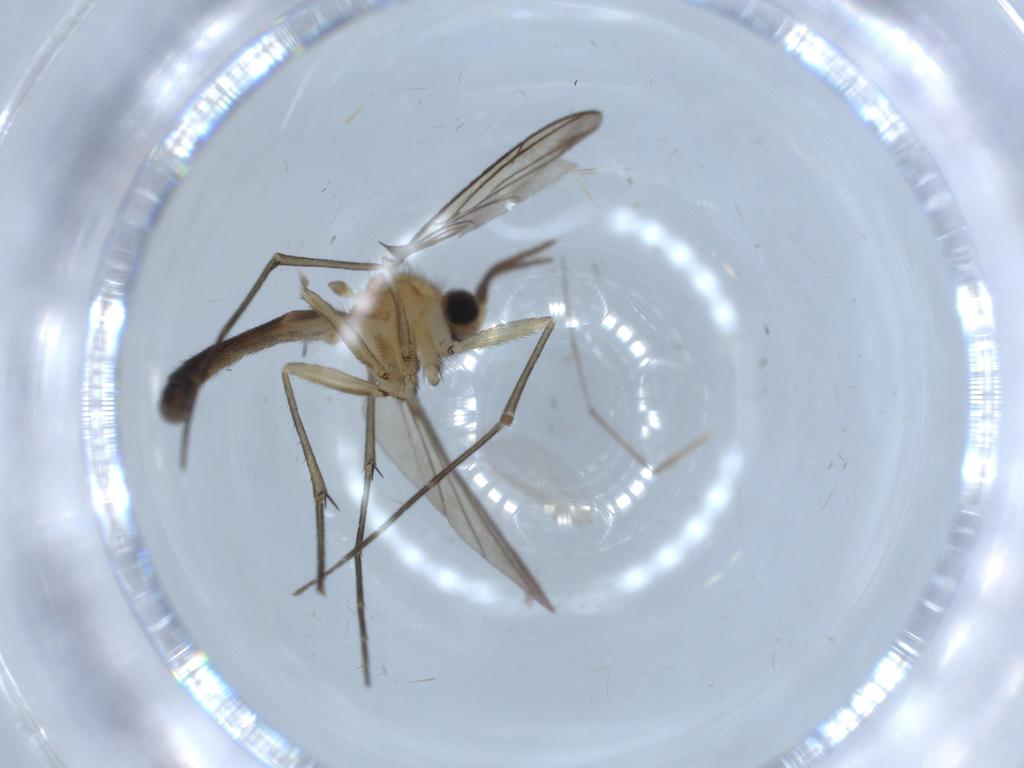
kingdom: Animalia
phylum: Arthropoda
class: Insecta
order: Diptera
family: Keroplatidae
